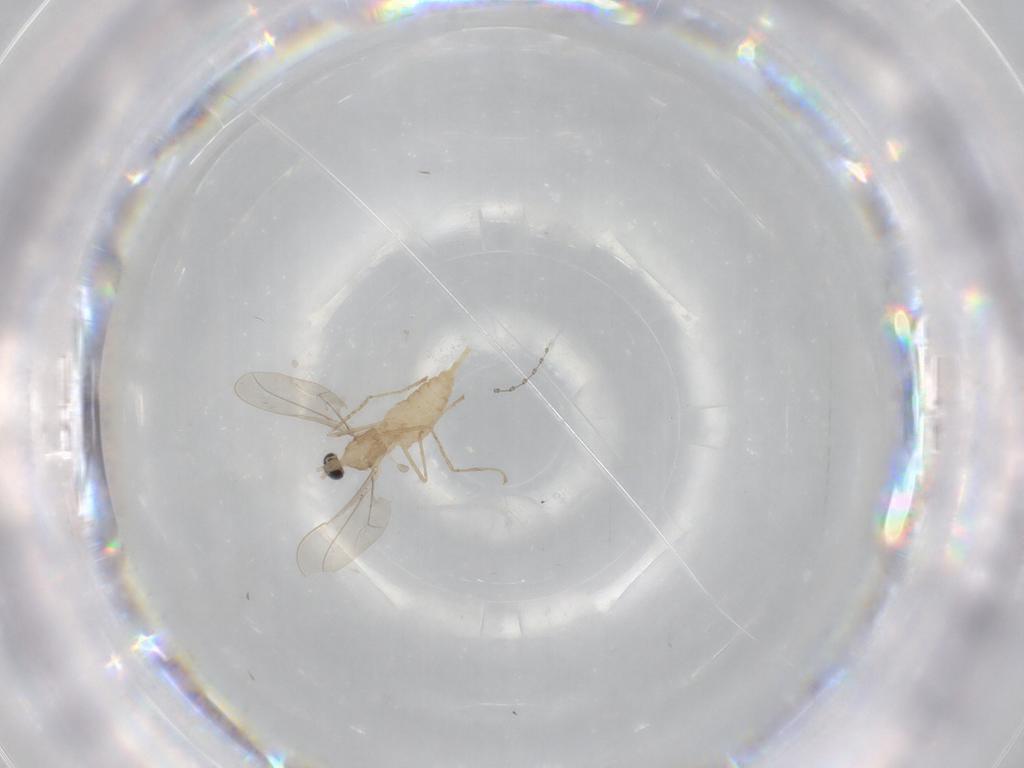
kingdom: Animalia
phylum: Arthropoda
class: Insecta
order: Diptera
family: Cecidomyiidae
